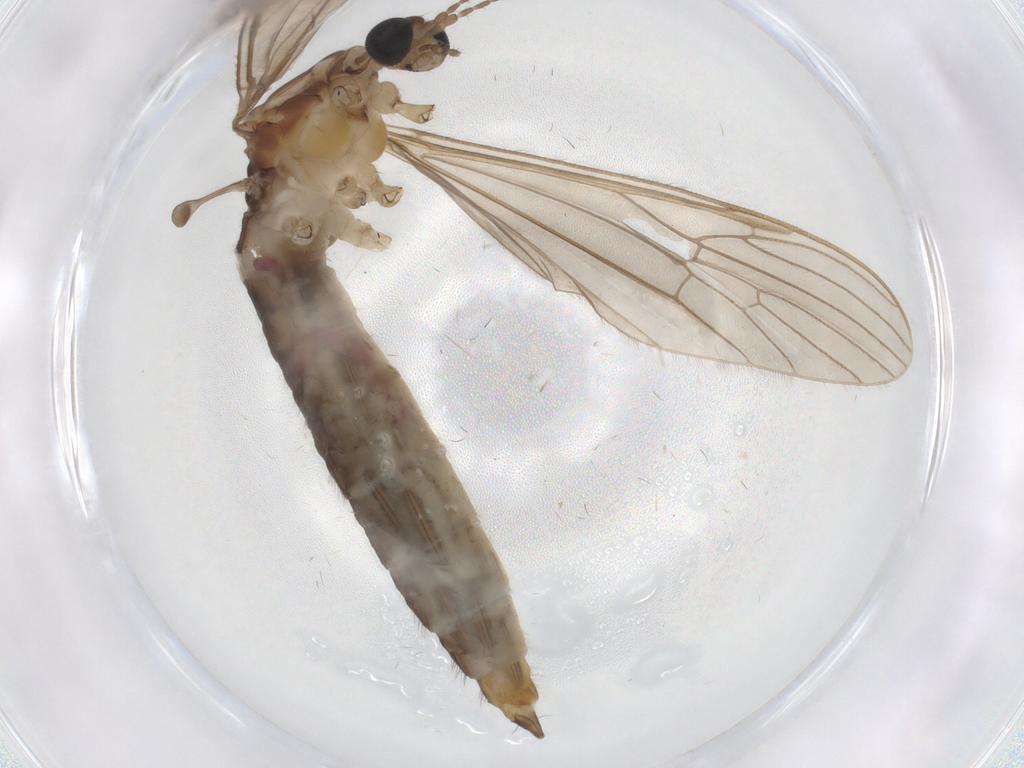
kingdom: Animalia
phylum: Arthropoda
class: Insecta
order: Diptera
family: Limoniidae
